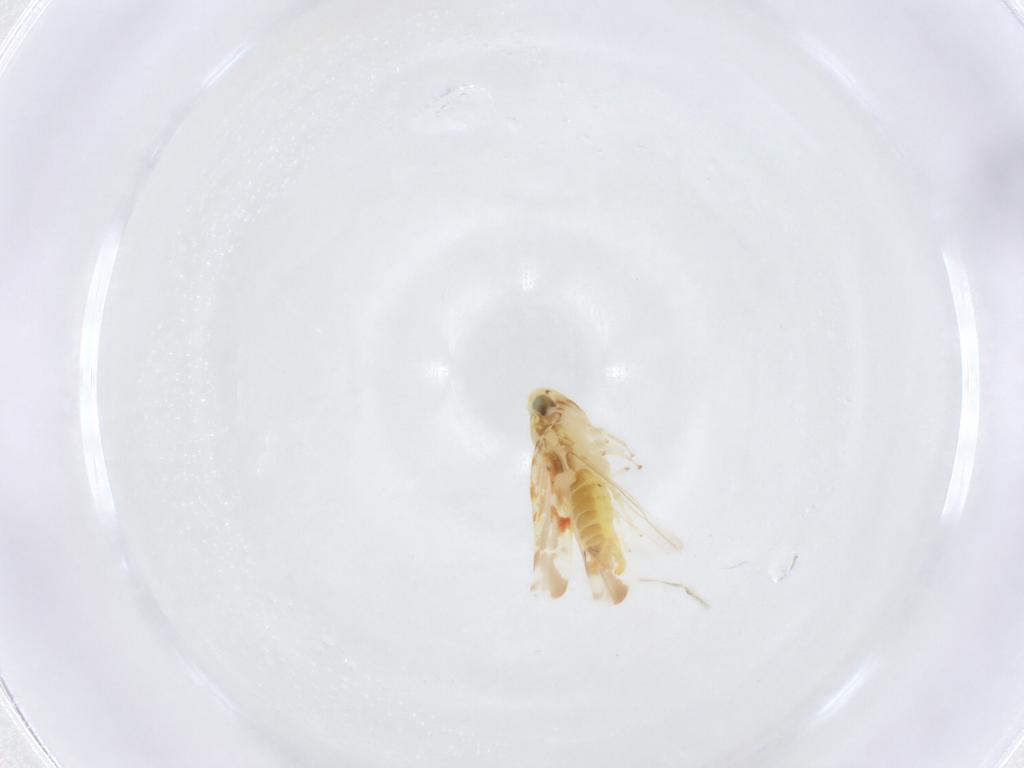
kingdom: Animalia
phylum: Arthropoda
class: Insecta
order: Hemiptera
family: Cicadellidae
